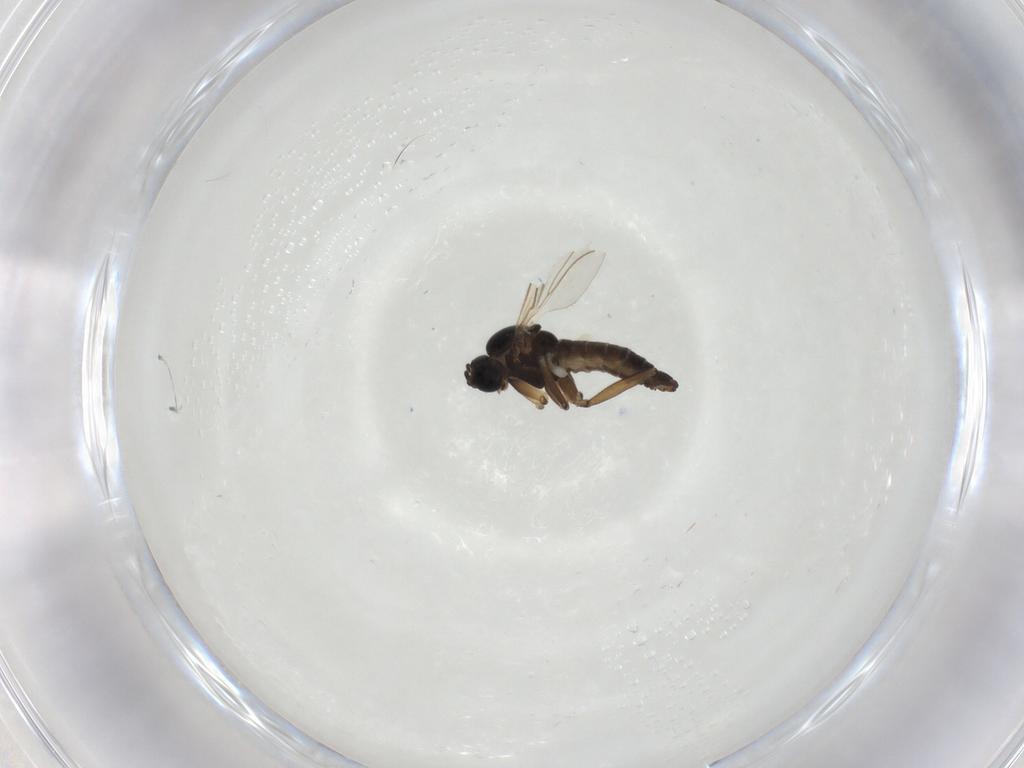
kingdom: Animalia
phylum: Arthropoda
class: Insecta
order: Diptera
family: Sciaridae
